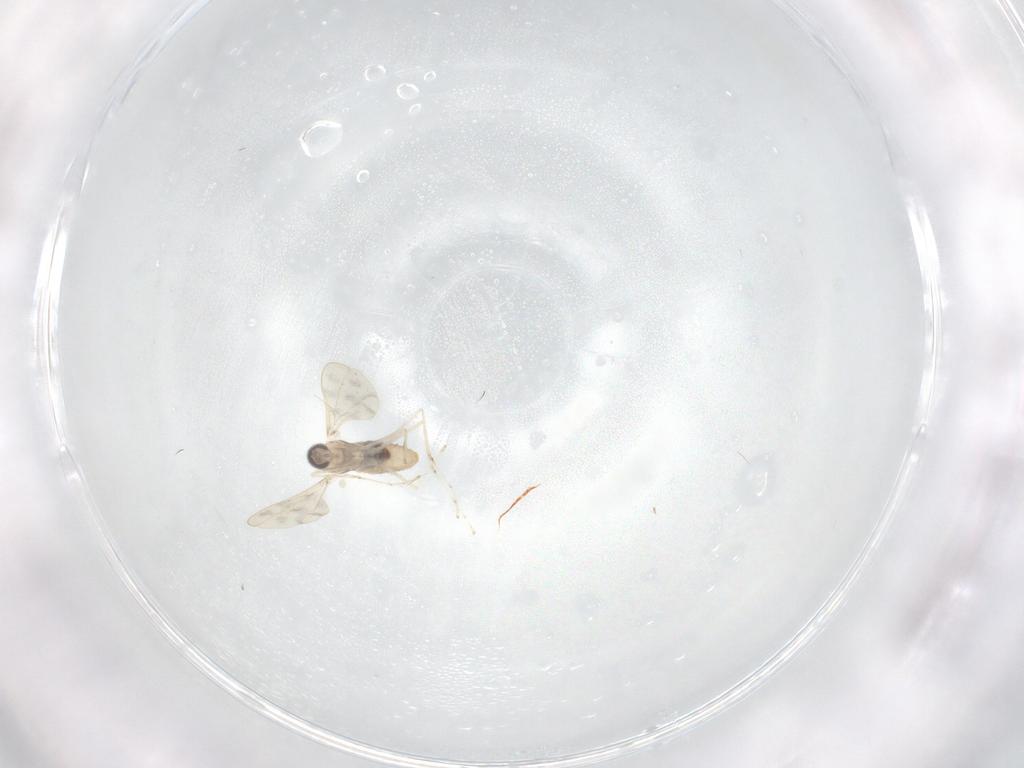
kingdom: Animalia
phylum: Arthropoda
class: Insecta
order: Diptera
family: Cecidomyiidae
